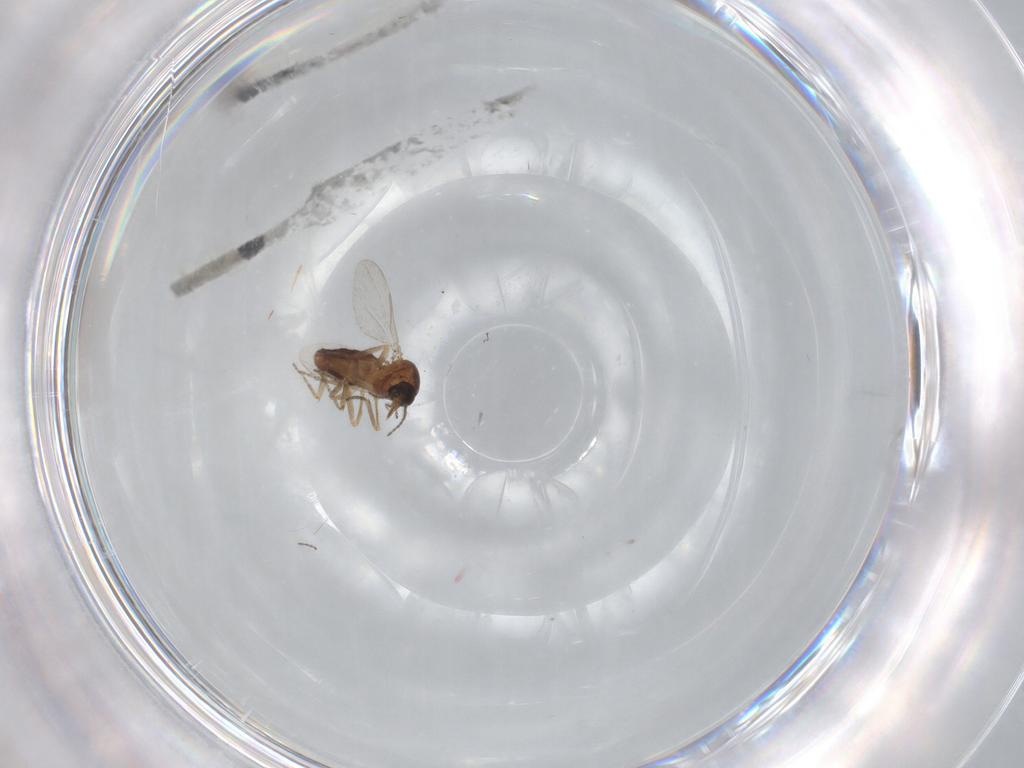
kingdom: Animalia
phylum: Arthropoda
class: Insecta
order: Diptera
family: Ceratopogonidae
